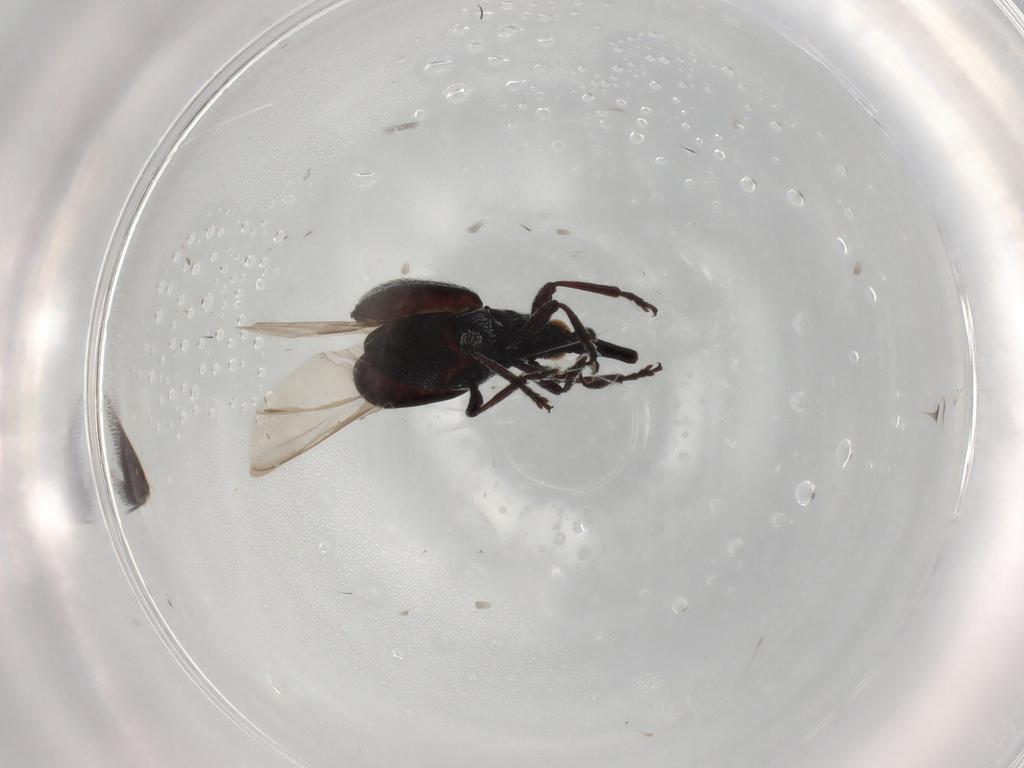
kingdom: Animalia
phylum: Arthropoda
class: Insecta
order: Coleoptera
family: Brentidae
